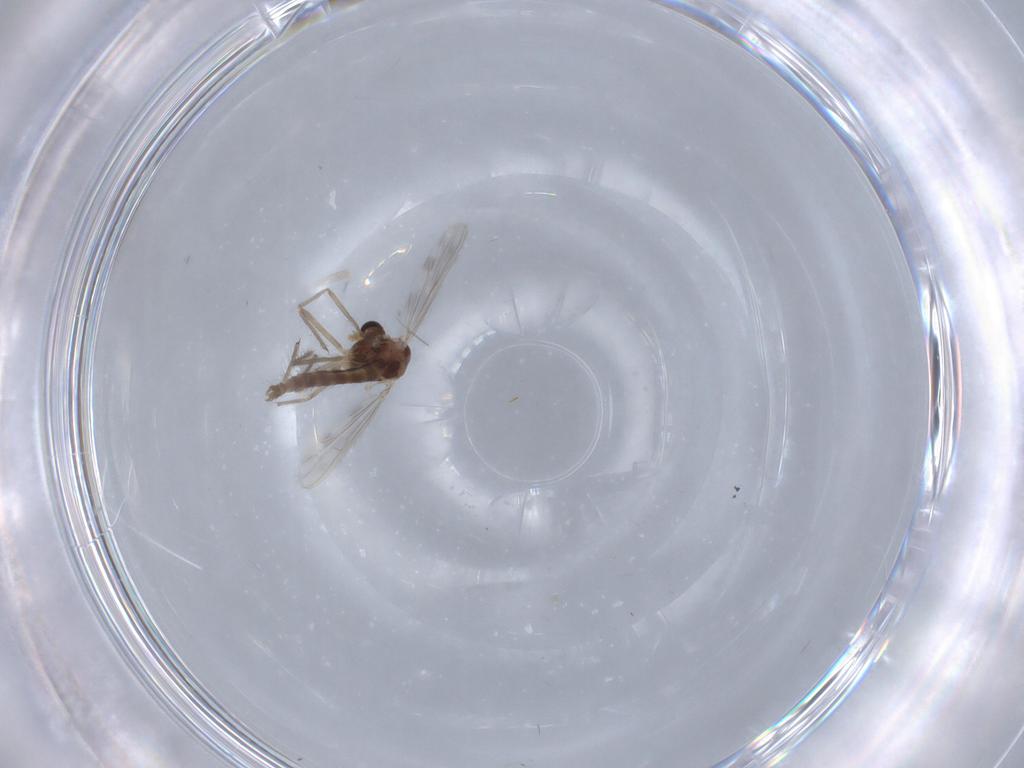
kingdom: Animalia
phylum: Arthropoda
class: Insecta
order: Diptera
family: Chironomidae
